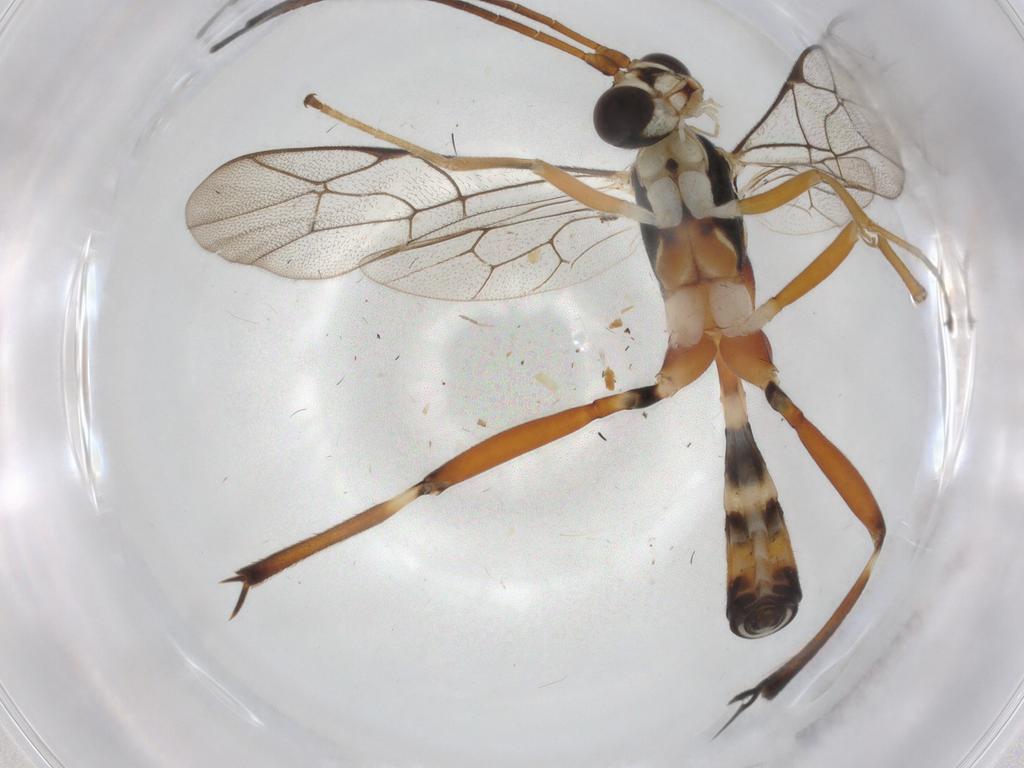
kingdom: Animalia
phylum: Arthropoda
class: Insecta
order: Hymenoptera
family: Ichneumonidae
